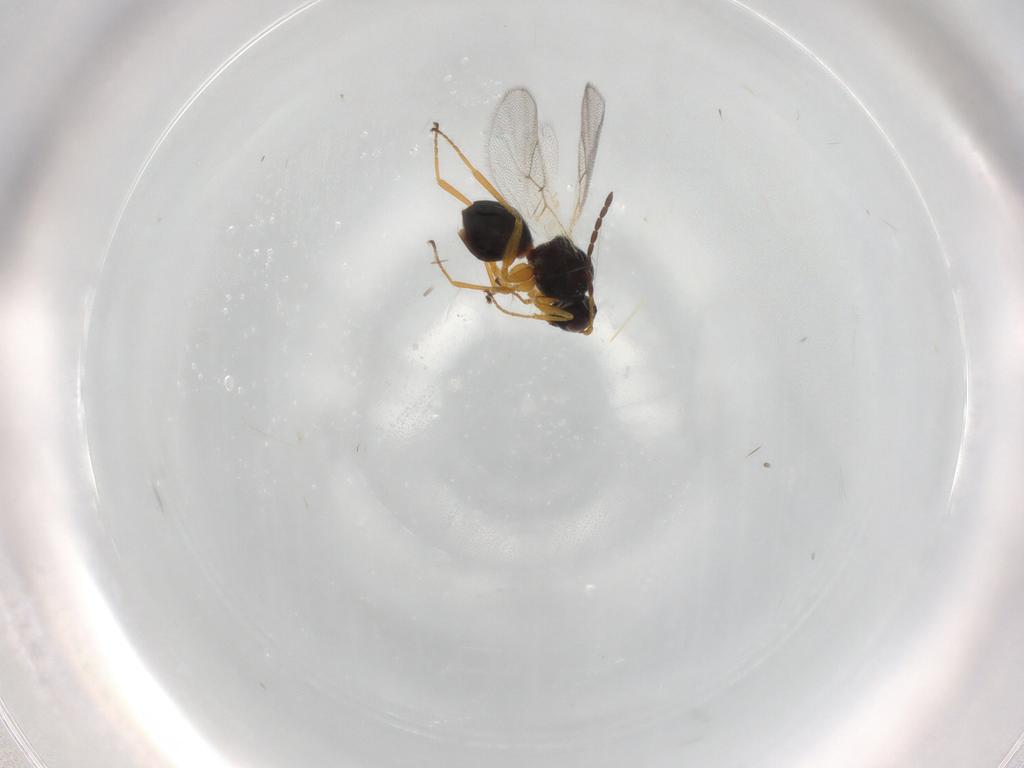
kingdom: Animalia
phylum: Arthropoda
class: Insecta
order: Hymenoptera
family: Figitidae
